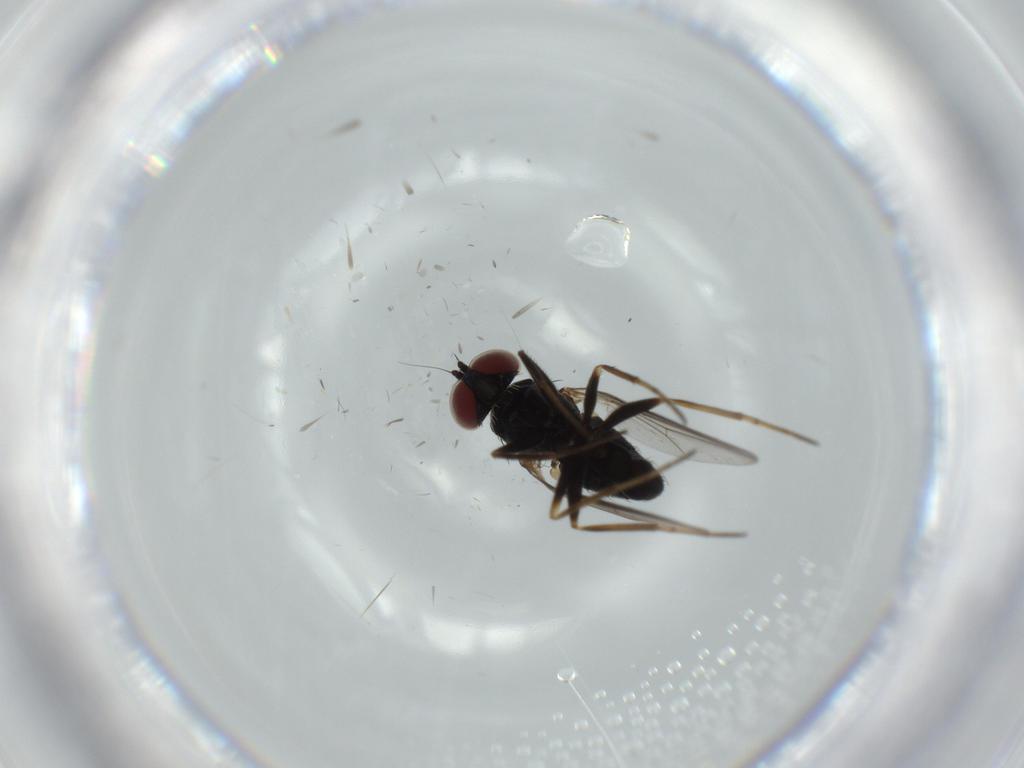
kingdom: Animalia
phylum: Arthropoda
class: Insecta
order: Diptera
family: Dolichopodidae
